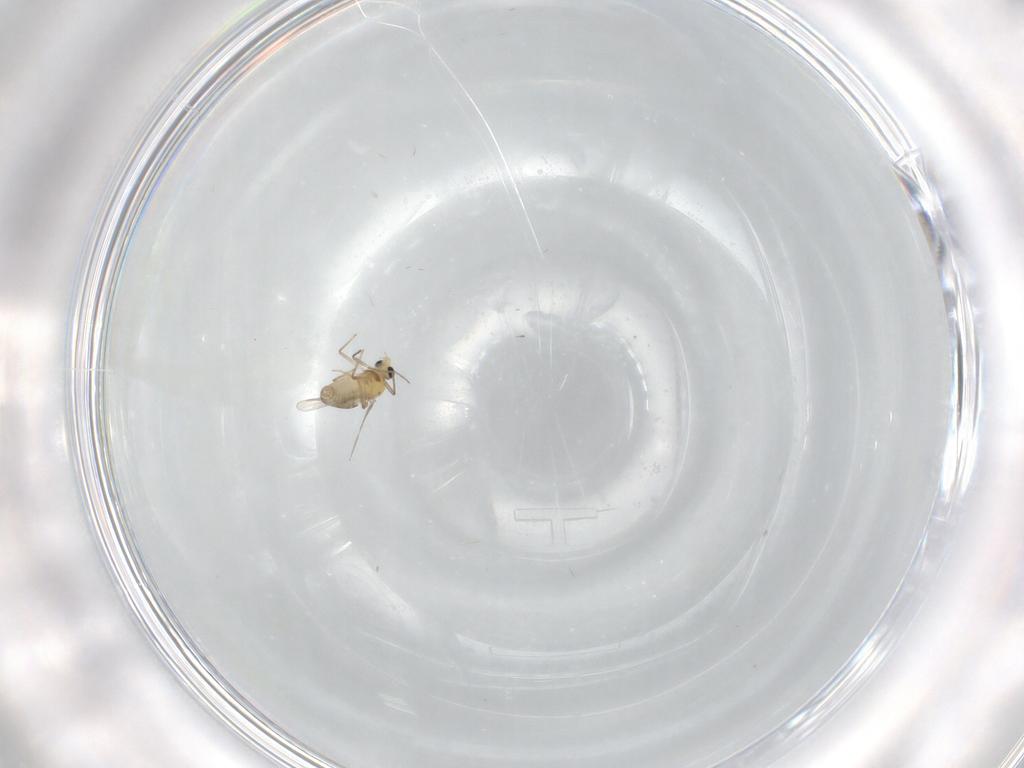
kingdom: Animalia
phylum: Arthropoda
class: Insecta
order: Diptera
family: Chironomidae
